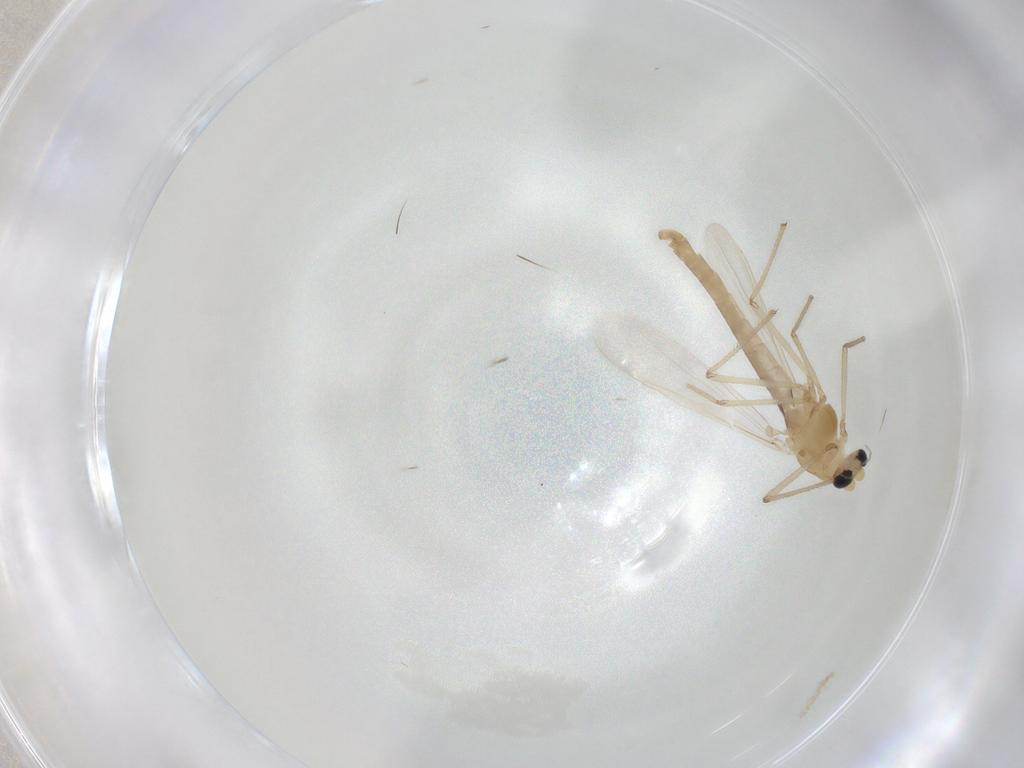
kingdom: Animalia
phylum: Arthropoda
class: Insecta
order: Diptera
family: Chironomidae
